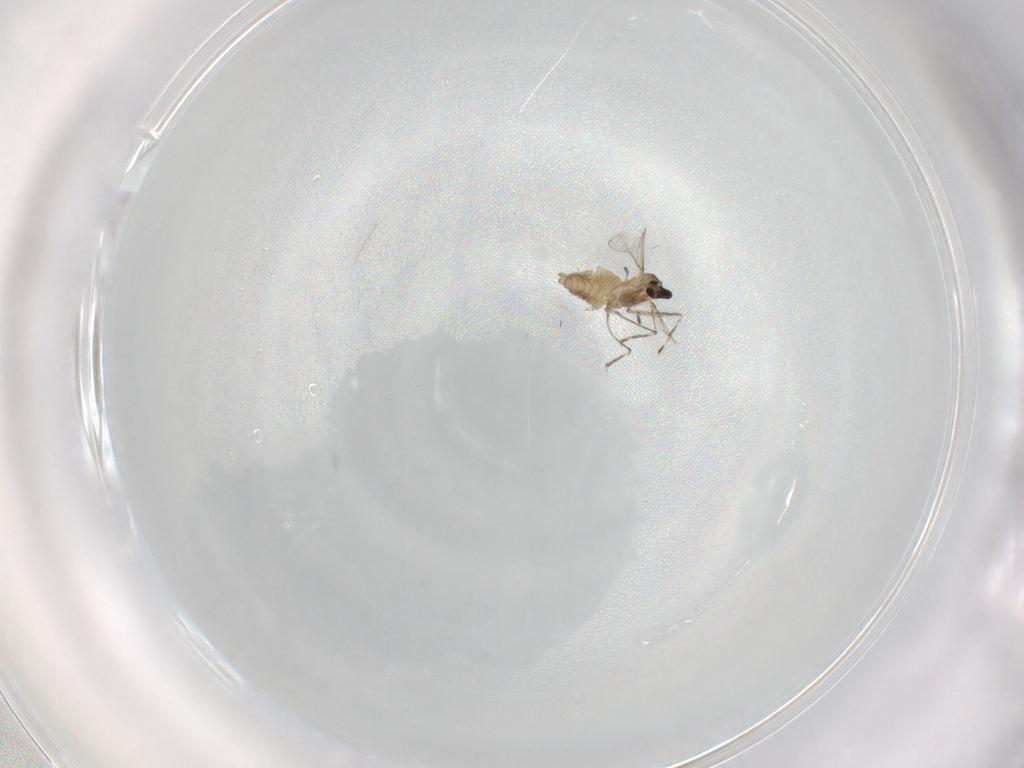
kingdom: Animalia
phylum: Arthropoda
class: Insecta
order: Diptera
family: Cecidomyiidae
